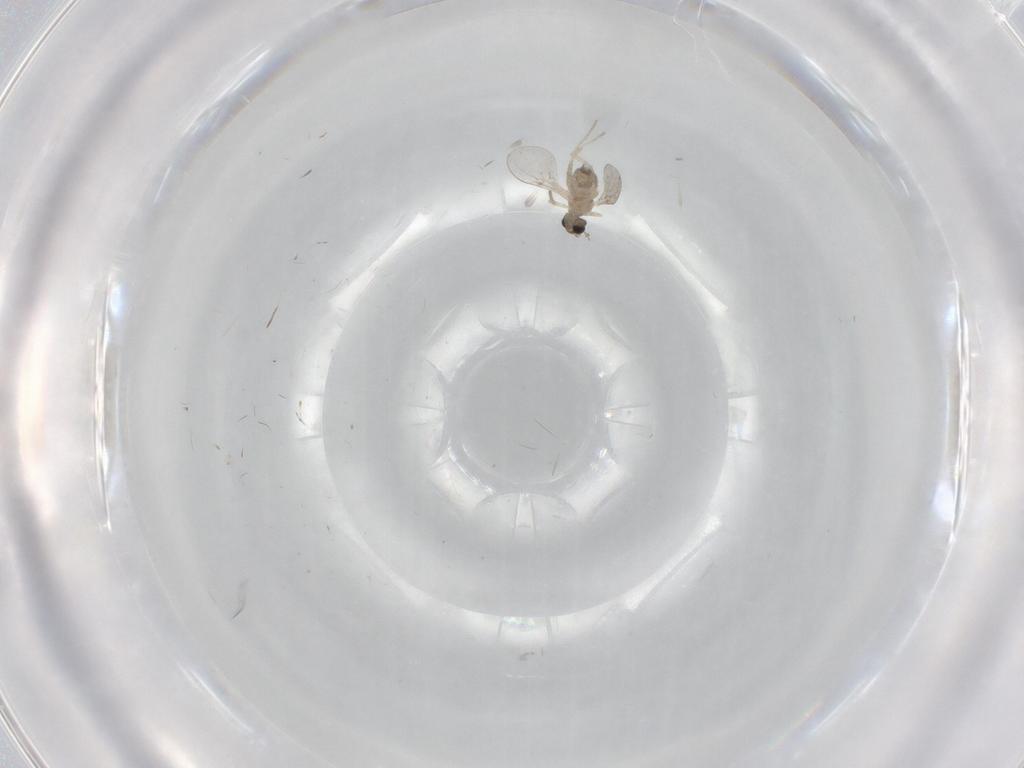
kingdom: Animalia
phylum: Arthropoda
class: Insecta
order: Diptera
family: Cecidomyiidae
